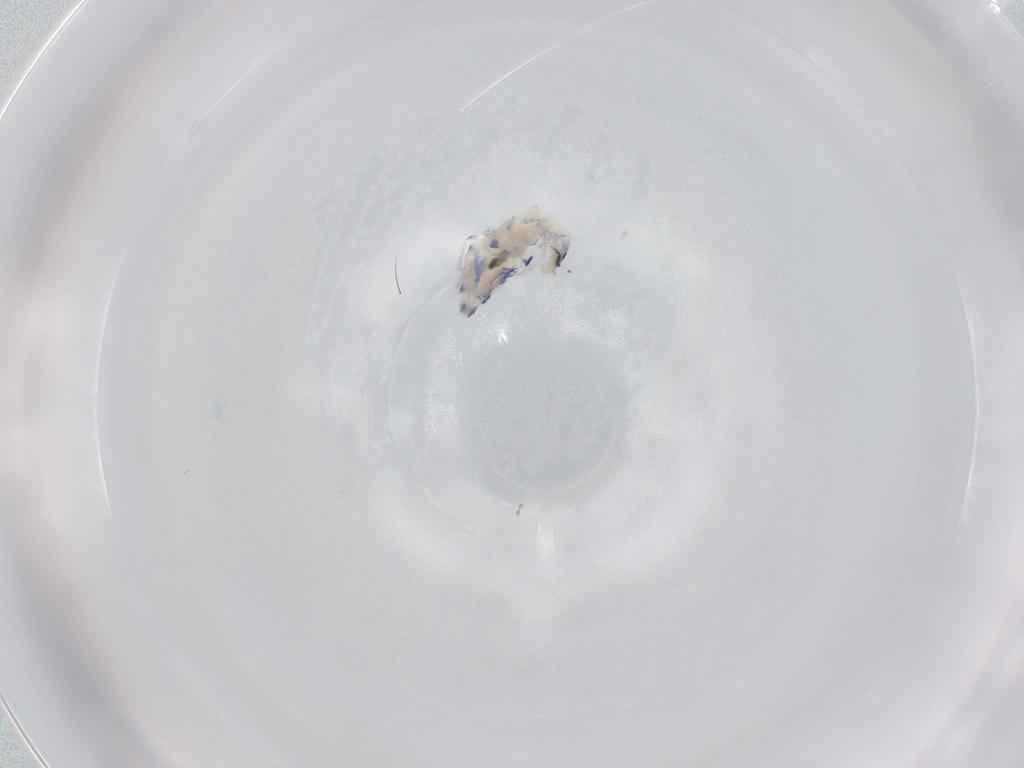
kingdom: Animalia
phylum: Arthropoda
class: Collembola
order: Entomobryomorpha
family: Entomobryidae
